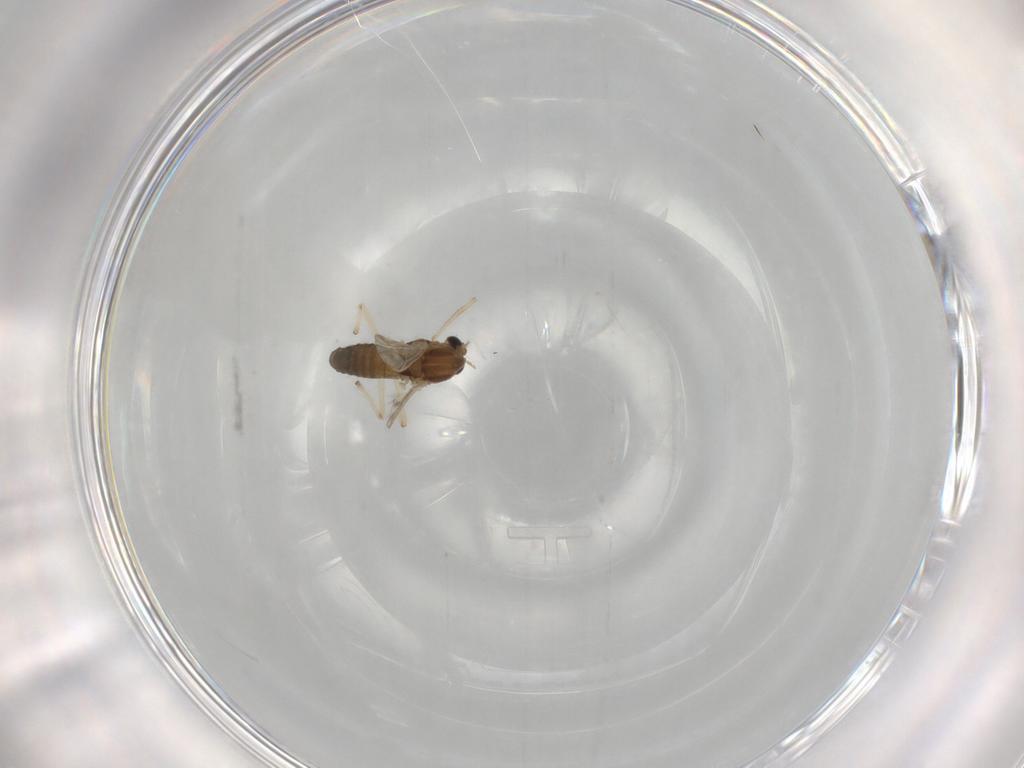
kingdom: Animalia
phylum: Arthropoda
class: Insecta
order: Diptera
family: Chironomidae
